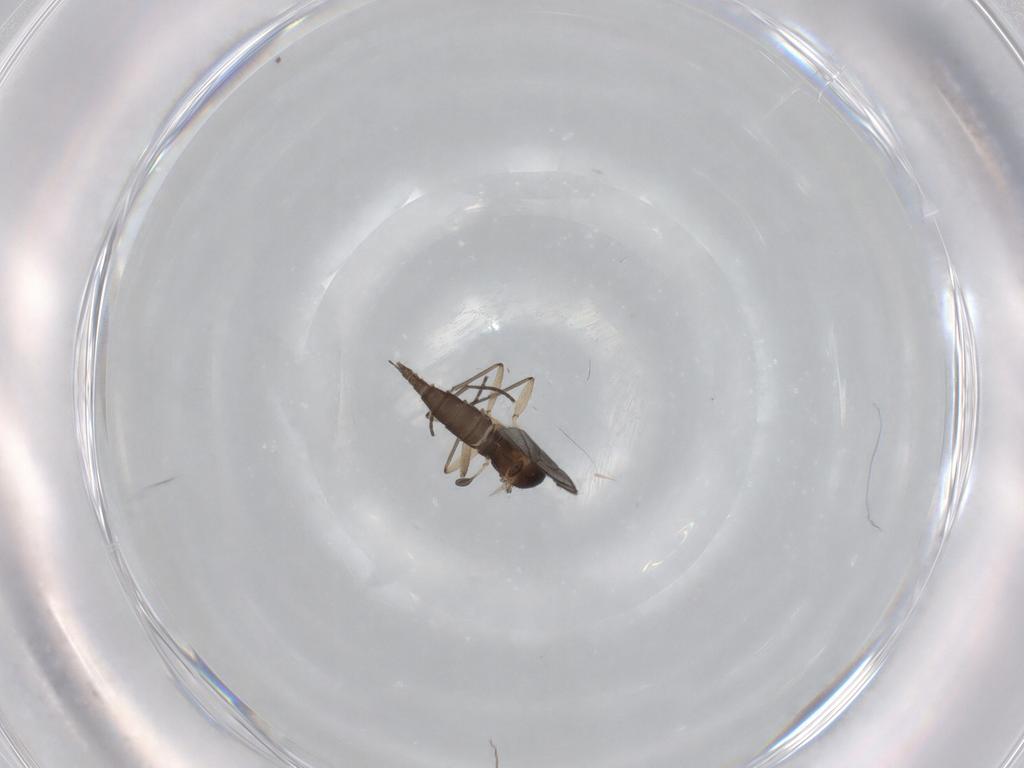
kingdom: Animalia
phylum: Arthropoda
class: Insecta
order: Diptera
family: Sciaridae
